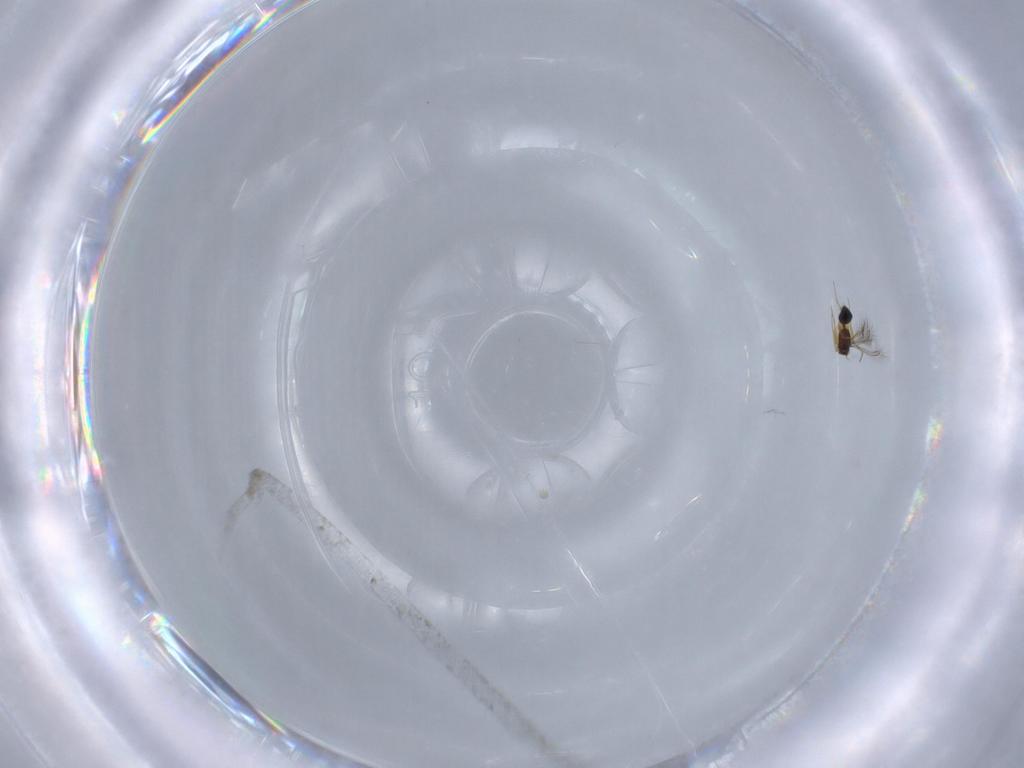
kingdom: Animalia
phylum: Arthropoda
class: Insecta
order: Hymenoptera
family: Mymaridae
